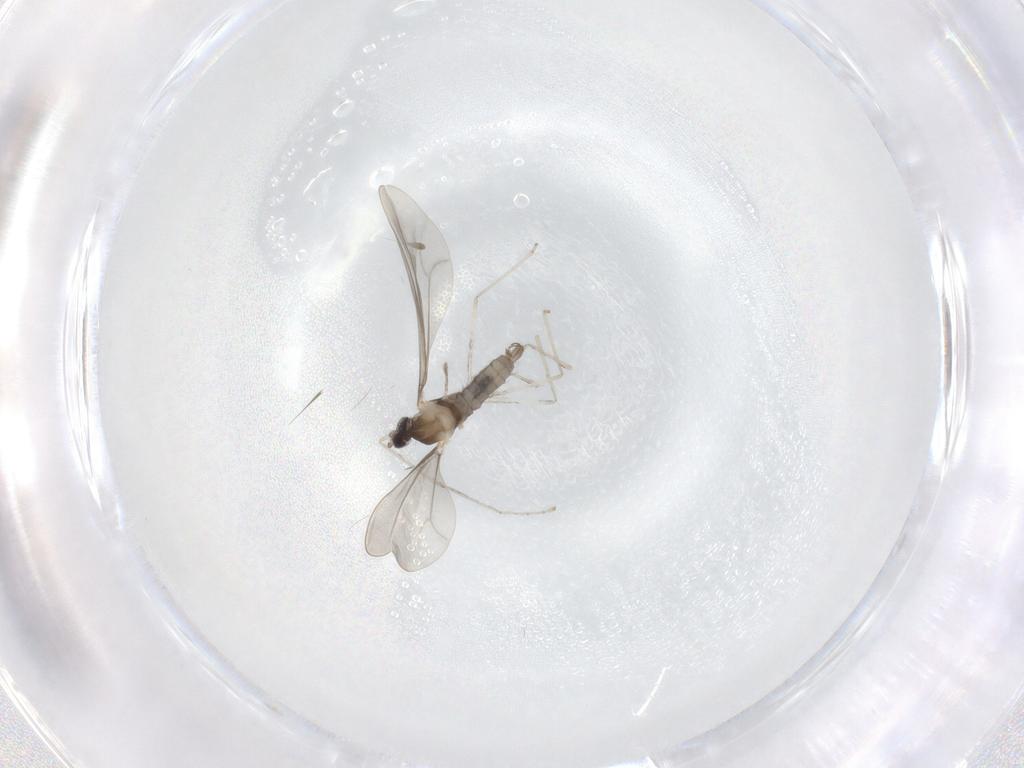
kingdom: Animalia
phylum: Arthropoda
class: Insecta
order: Diptera
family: Cecidomyiidae
